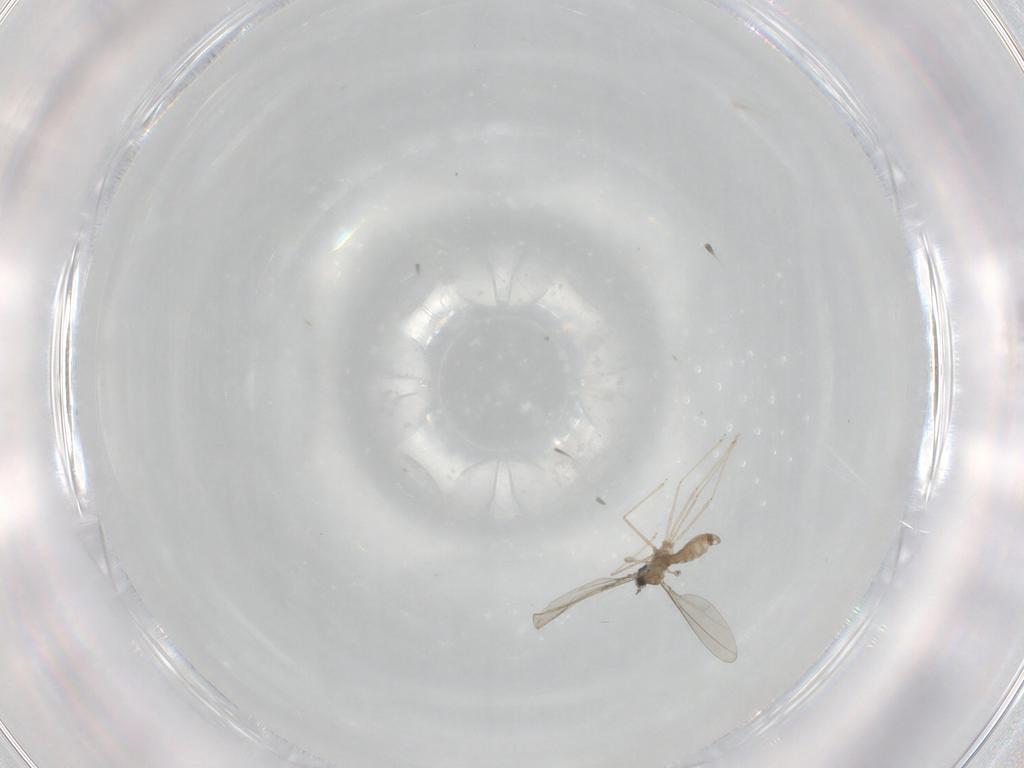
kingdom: Animalia
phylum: Arthropoda
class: Insecta
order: Diptera
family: Cecidomyiidae
